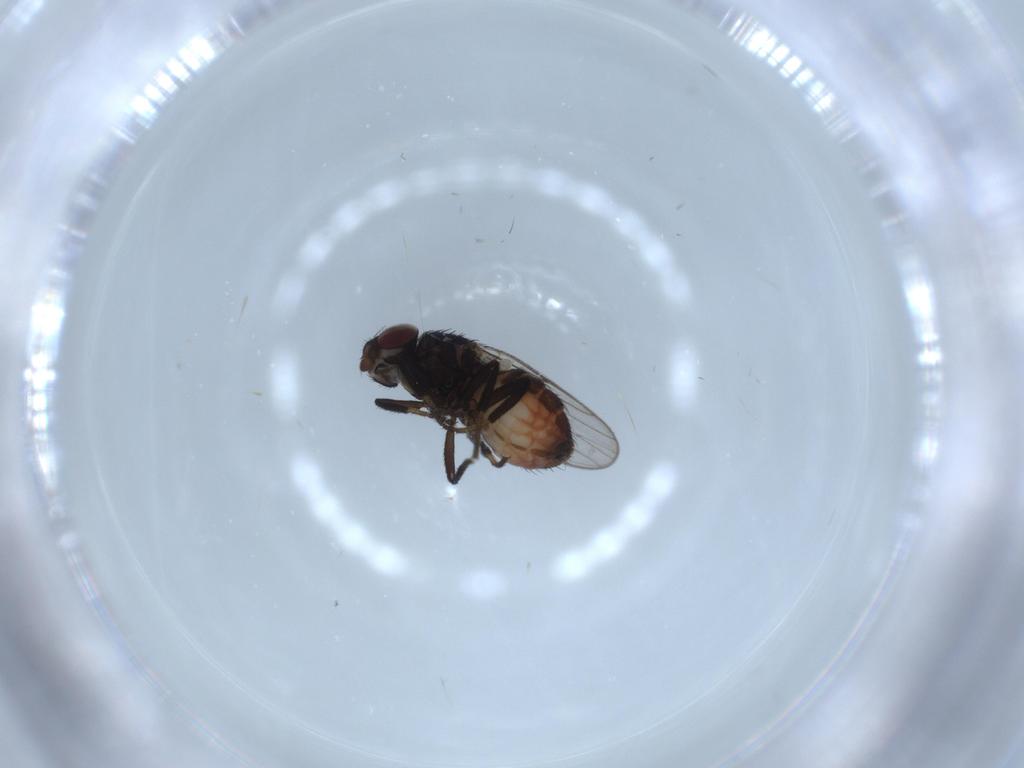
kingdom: Animalia
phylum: Arthropoda
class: Insecta
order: Diptera
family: Chloropidae
